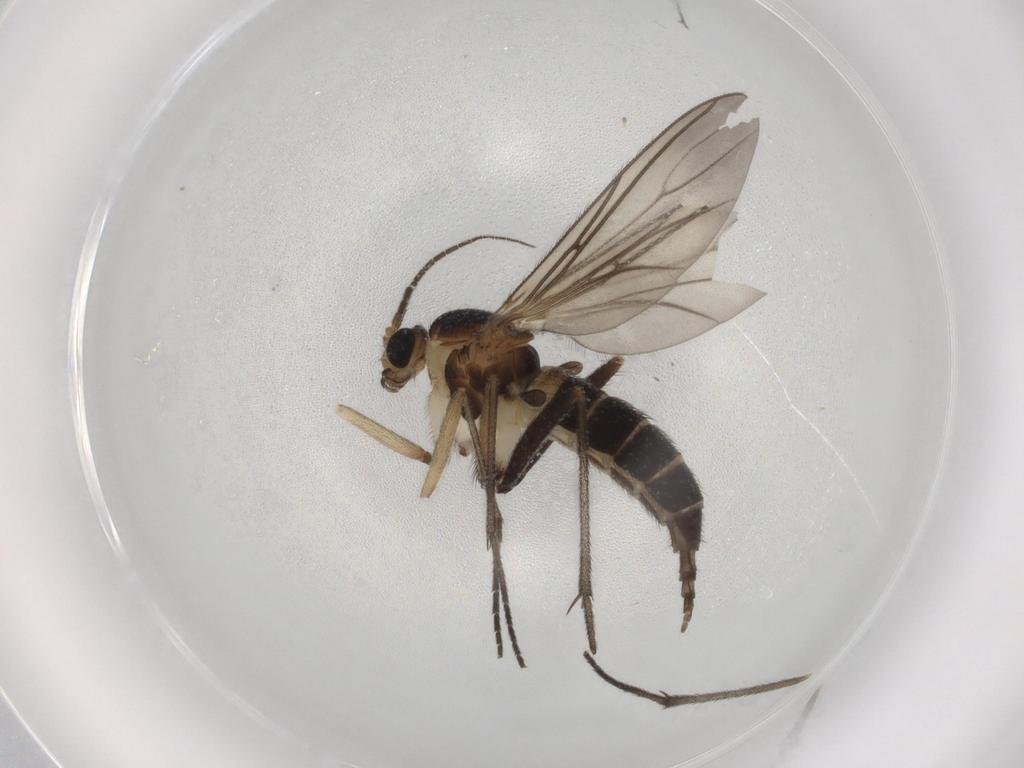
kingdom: Animalia
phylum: Arthropoda
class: Insecta
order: Diptera
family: Sciaridae
